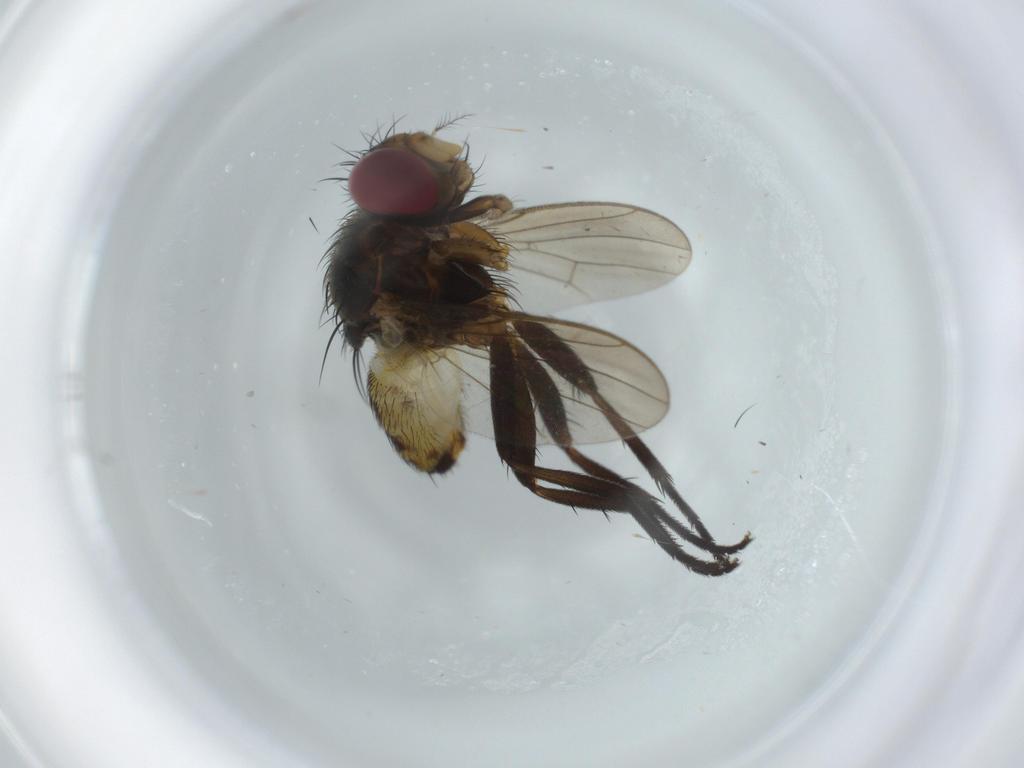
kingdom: Animalia
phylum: Arthropoda
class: Insecta
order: Diptera
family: Anthomyiidae
